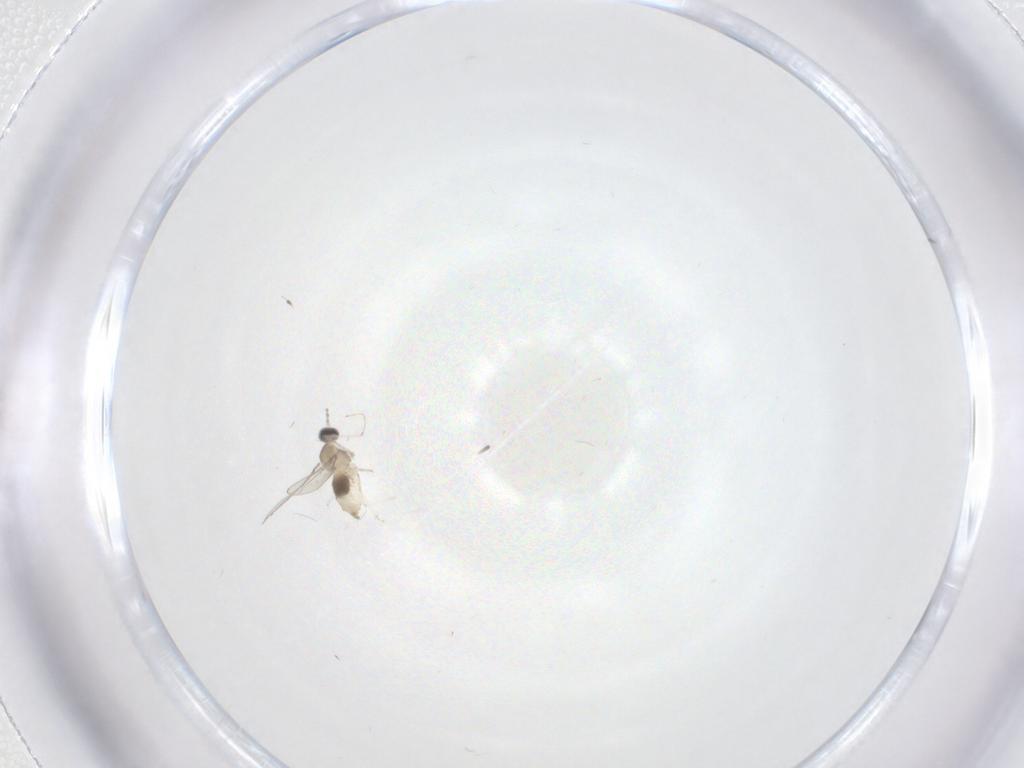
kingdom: Animalia
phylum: Arthropoda
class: Insecta
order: Diptera
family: Cecidomyiidae
